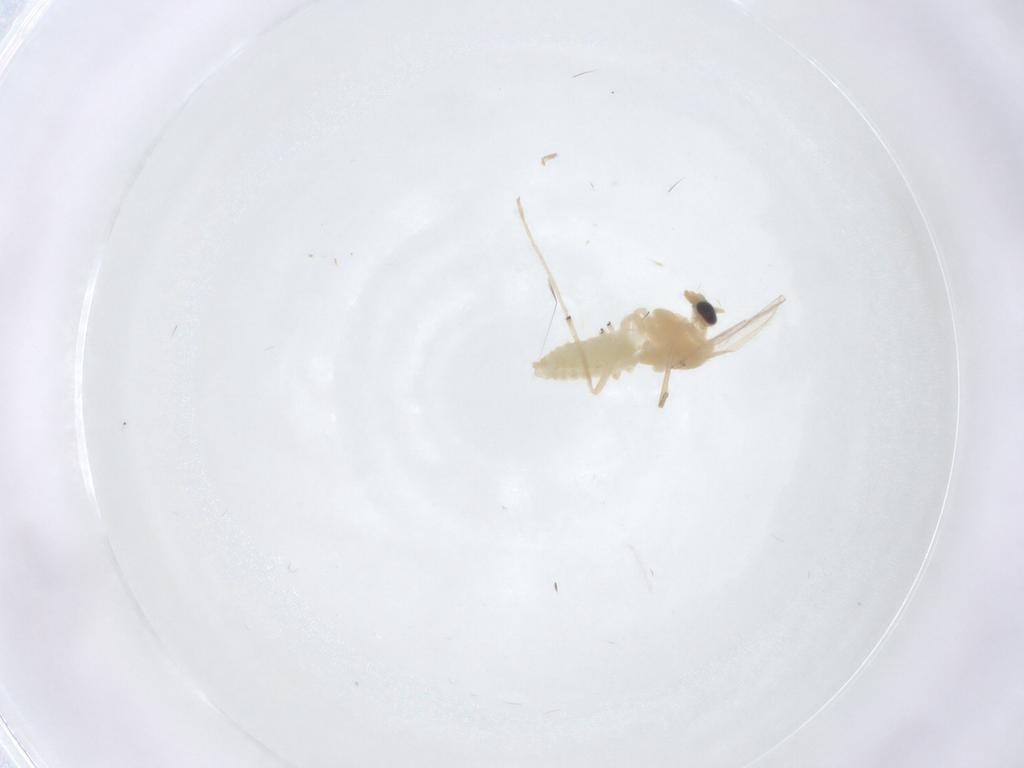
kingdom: Animalia
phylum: Arthropoda
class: Insecta
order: Diptera
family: Chironomidae
